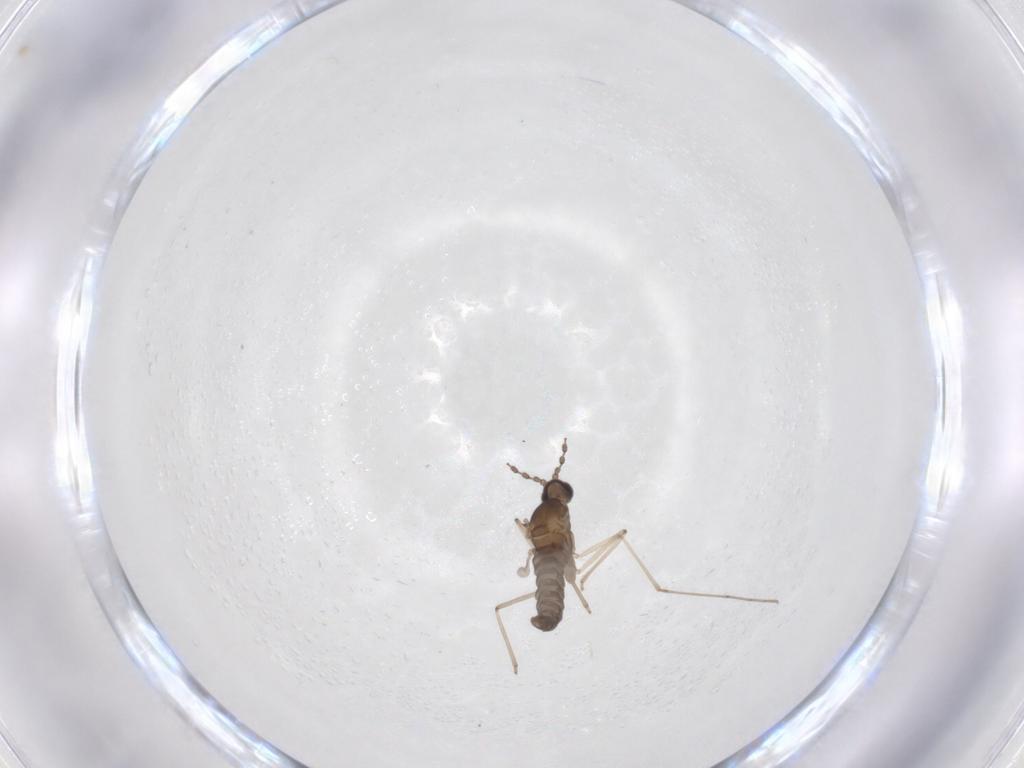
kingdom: Animalia
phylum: Arthropoda
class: Insecta
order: Diptera
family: Cecidomyiidae
